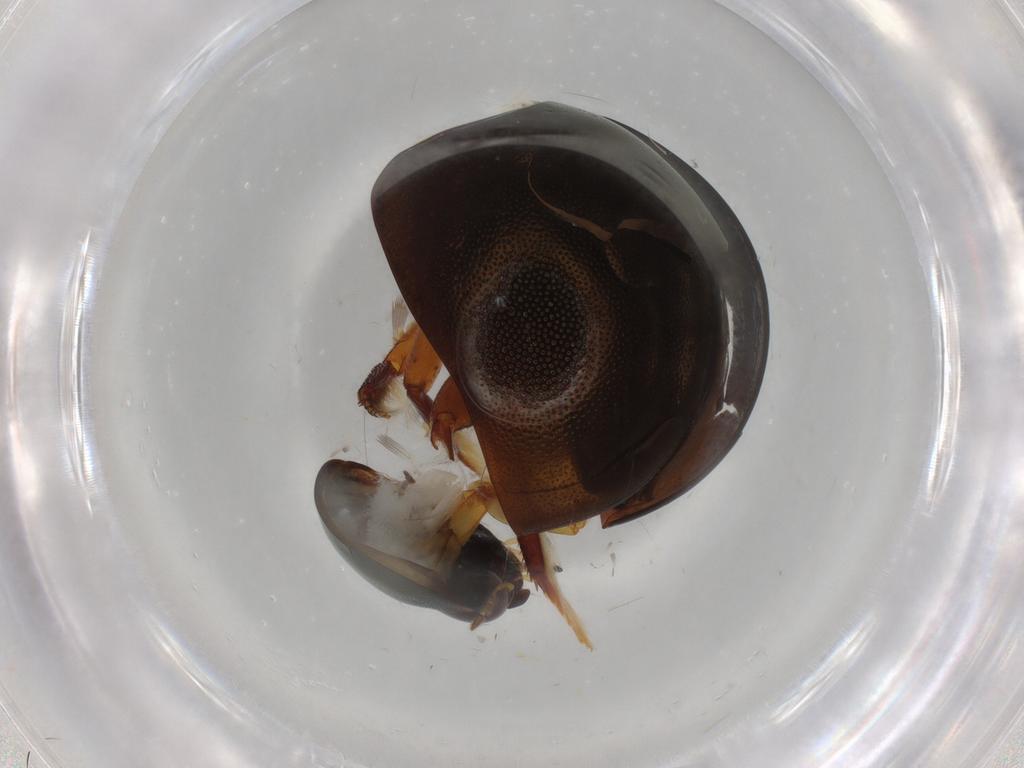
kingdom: Animalia
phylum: Arthropoda
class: Insecta
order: Coleoptera
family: Hydrophilidae
